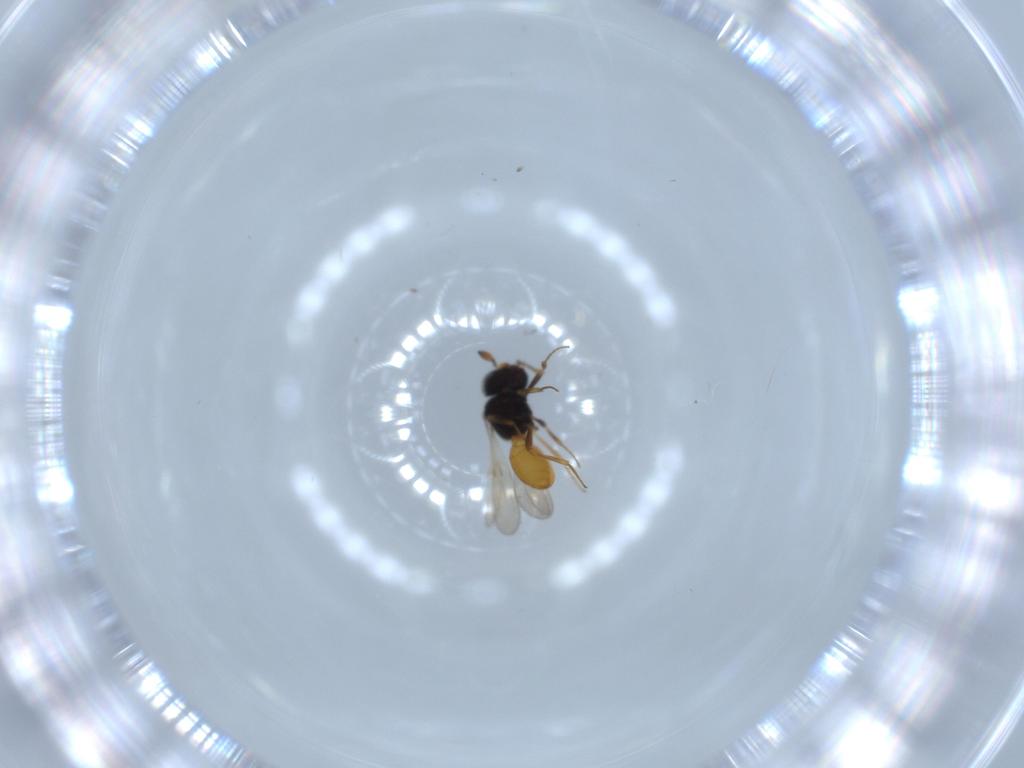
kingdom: Animalia
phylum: Arthropoda
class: Insecta
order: Hymenoptera
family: Scelionidae
